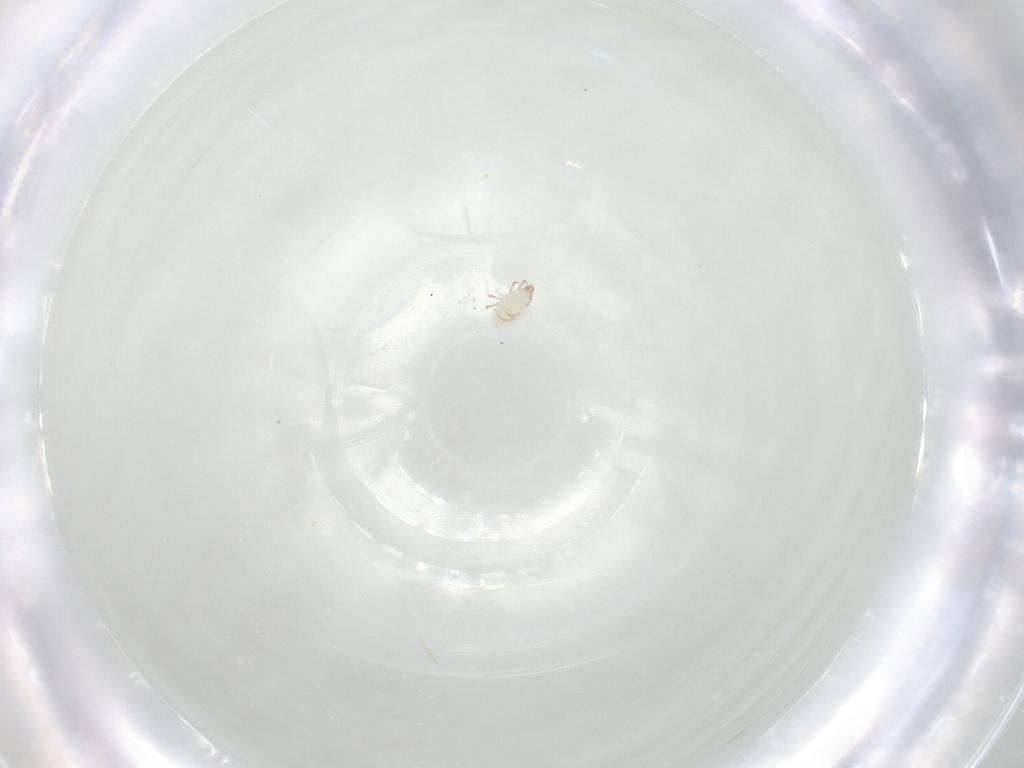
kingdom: Animalia
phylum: Arthropoda
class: Arachnida
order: Sarcoptiformes
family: Acaridae
